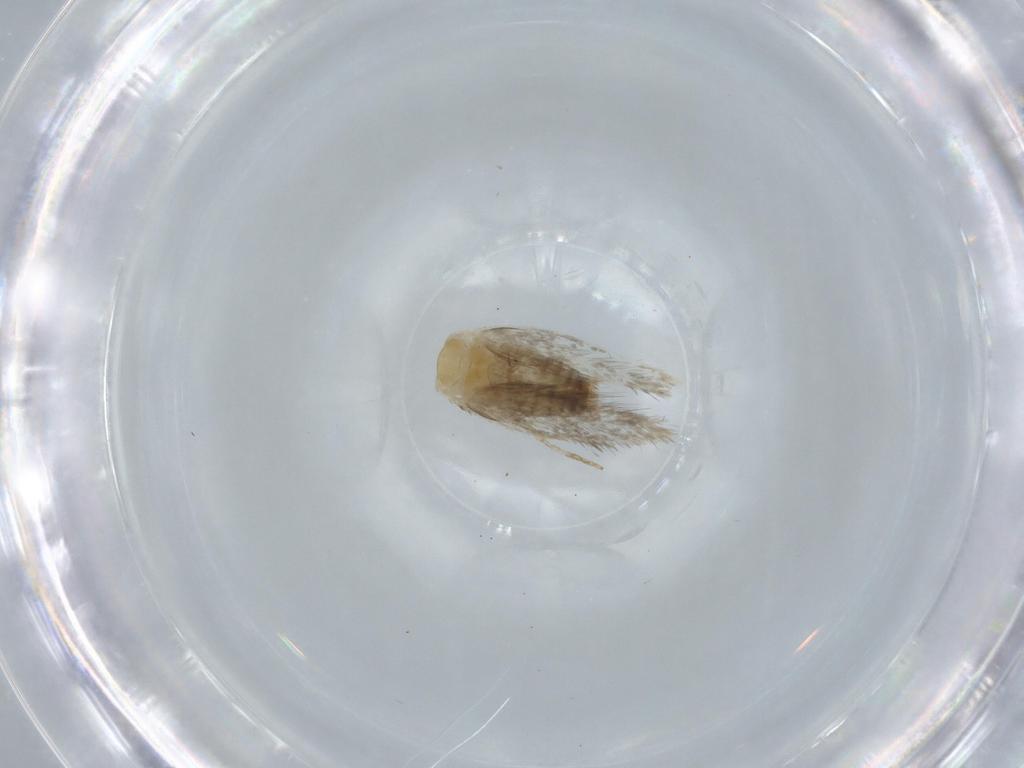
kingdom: Animalia
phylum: Arthropoda
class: Insecta
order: Lepidoptera
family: Nepticulidae
